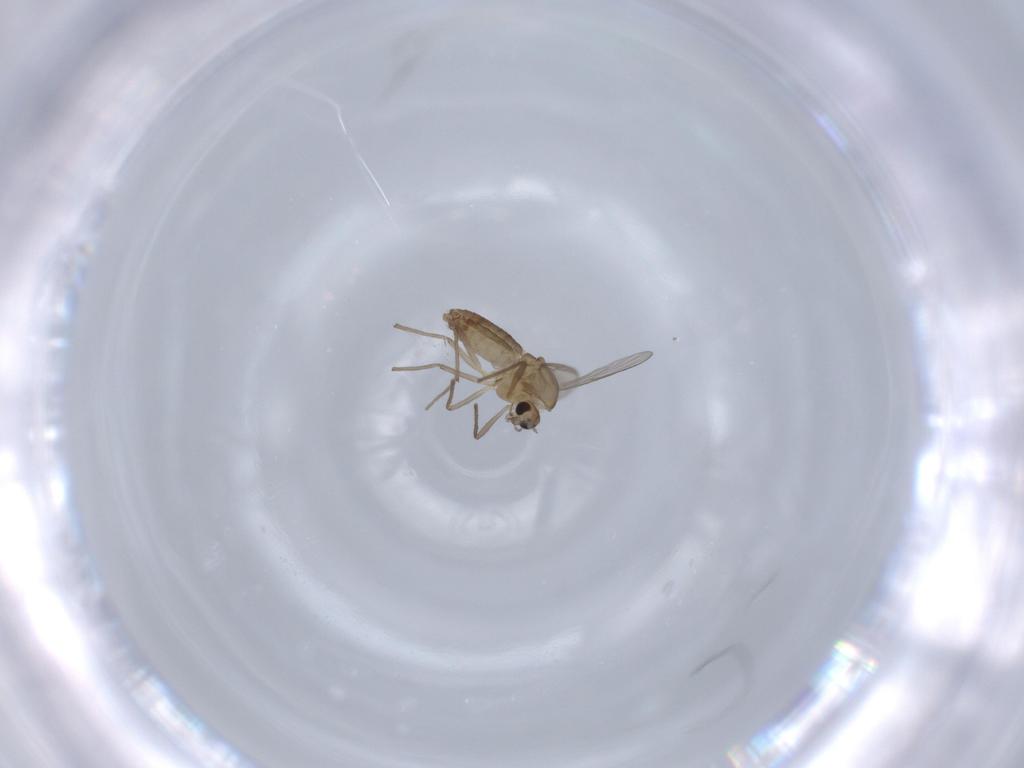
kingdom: Animalia
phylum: Arthropoda
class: Insecta
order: Diptera
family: Chironomidae
